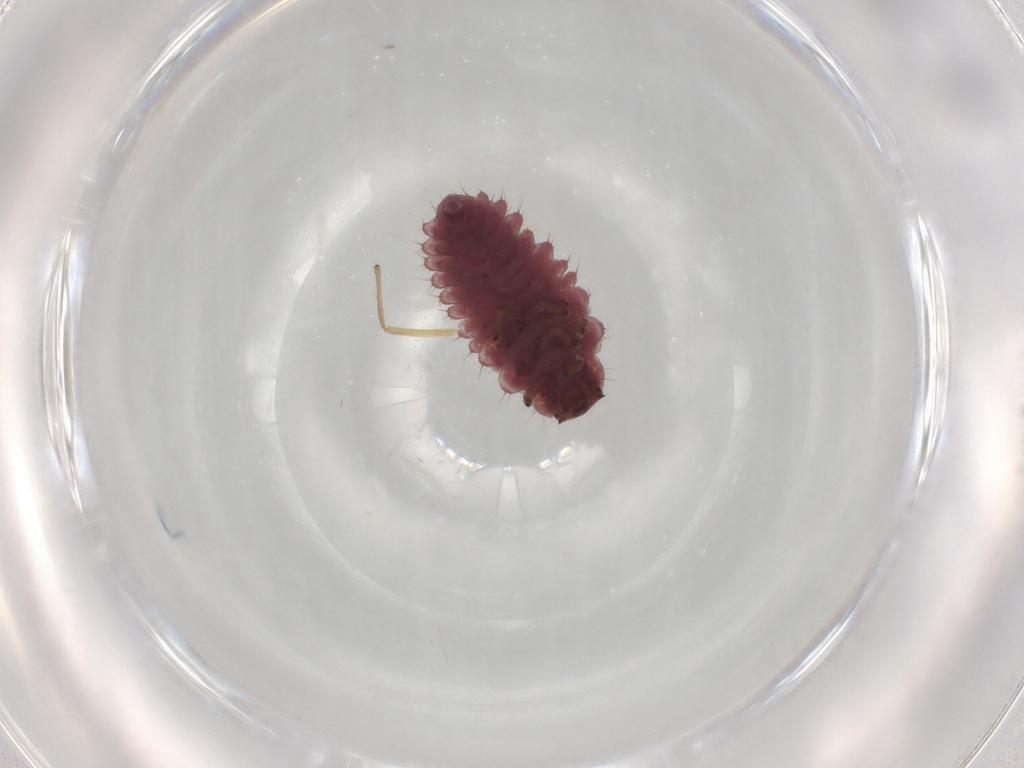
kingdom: Animalia
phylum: Arthropoda
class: Insecta
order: Coleoptera
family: Coccinellidae
